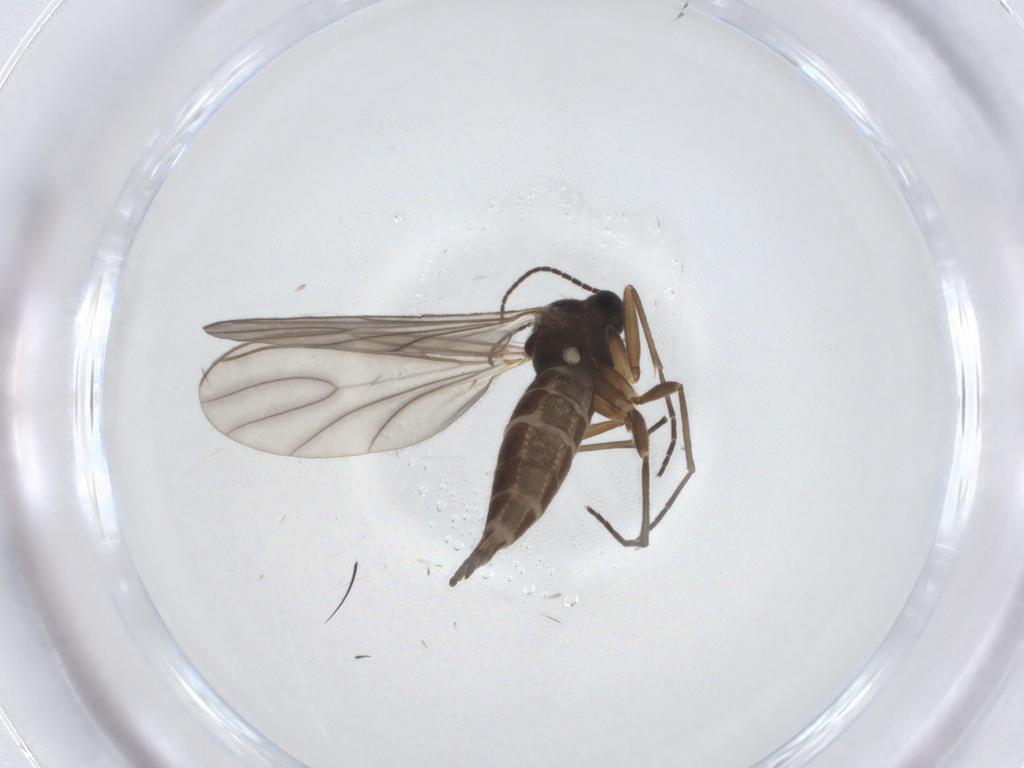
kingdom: Animalia
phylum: Arthropoda
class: Insecta
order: Diptera
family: Sciaridae
